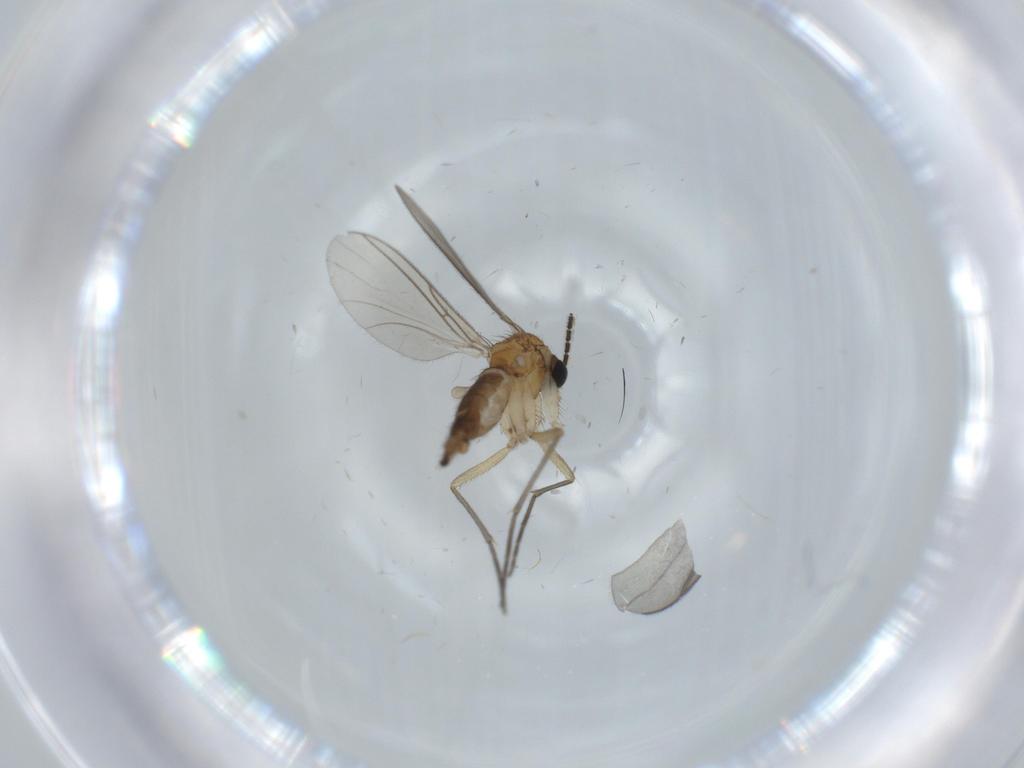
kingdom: Animalia
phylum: Arthropoda
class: Insecta
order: Diptera
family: Sciaridae
